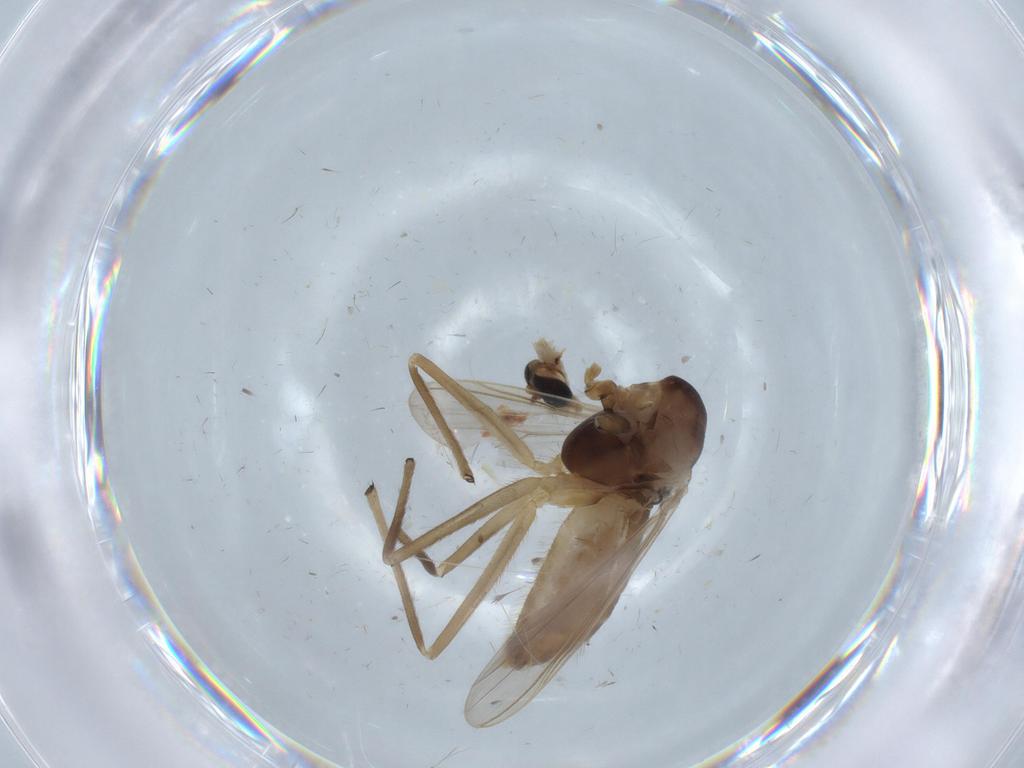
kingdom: Animalia
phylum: Arthropoda
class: Insecta
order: Diptera
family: Chironomidae
